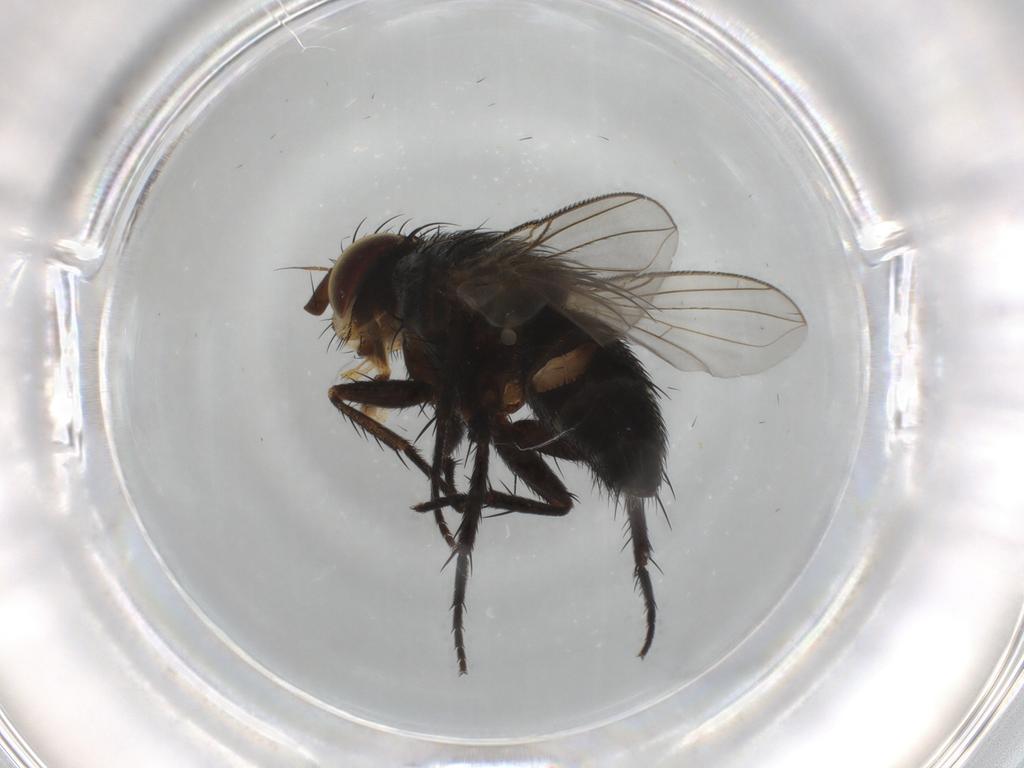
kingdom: Animalia
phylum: Arthropoda
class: Insecta
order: Diptera
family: Tachinidae
